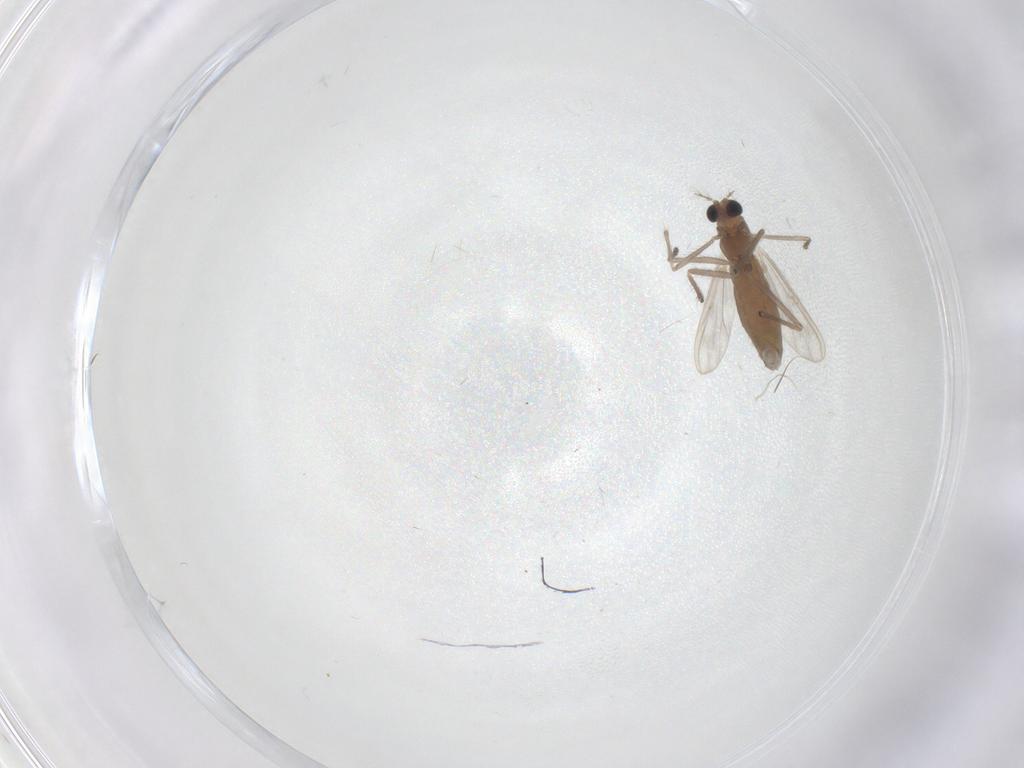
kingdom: Animalia
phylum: Arthropoda
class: Insecta
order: Diptera
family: Chironomidae
